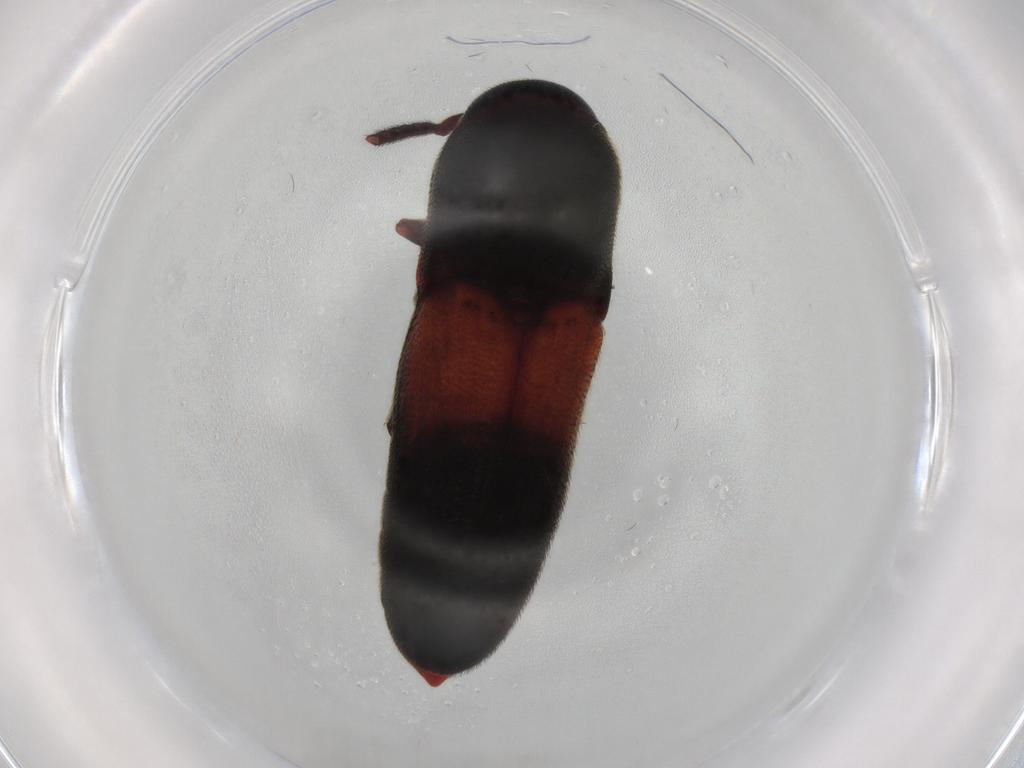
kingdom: Animalia
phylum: Arthropoda
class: Insecta
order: Coleoptera
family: Eucnemidae
